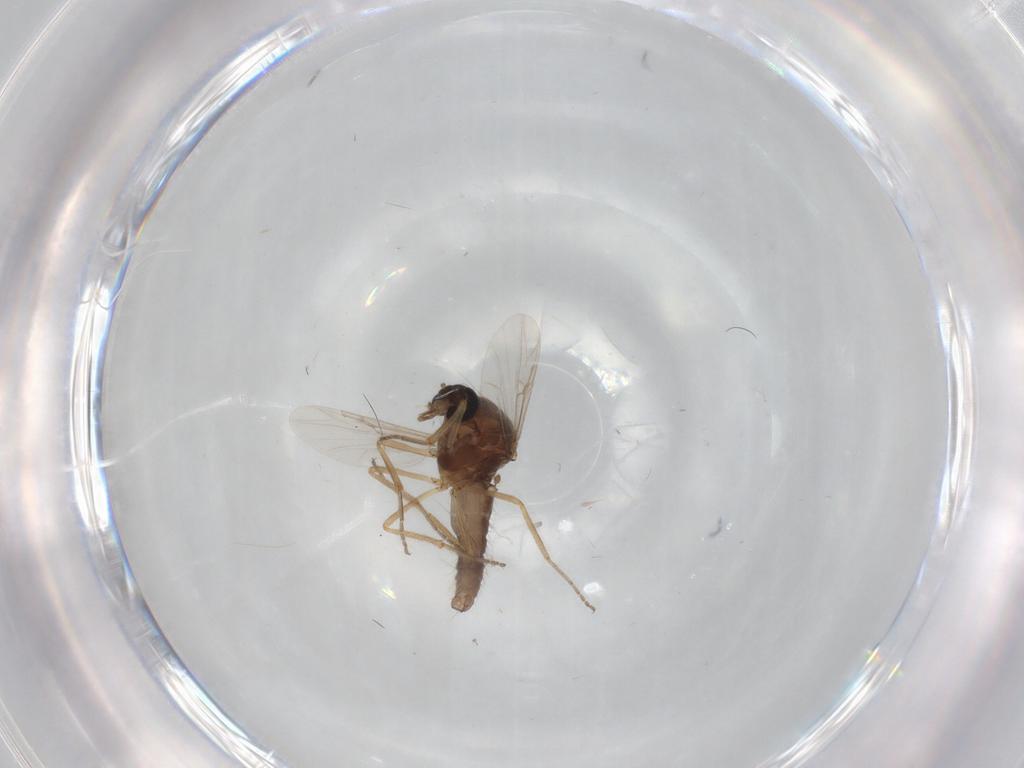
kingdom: Animalia
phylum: Arthropoda
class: Insecta
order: Diptera
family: Ceratopogonidae
